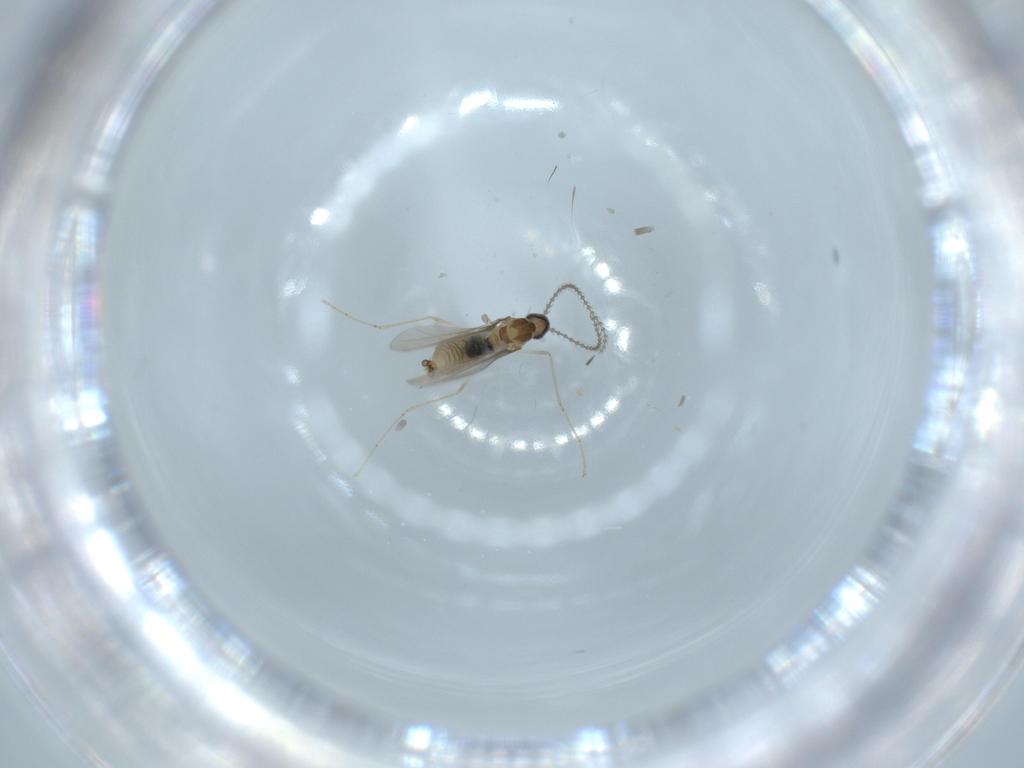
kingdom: Animalia
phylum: Arthropoda
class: Insecta
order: Diptera
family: Cecidomyiidae
